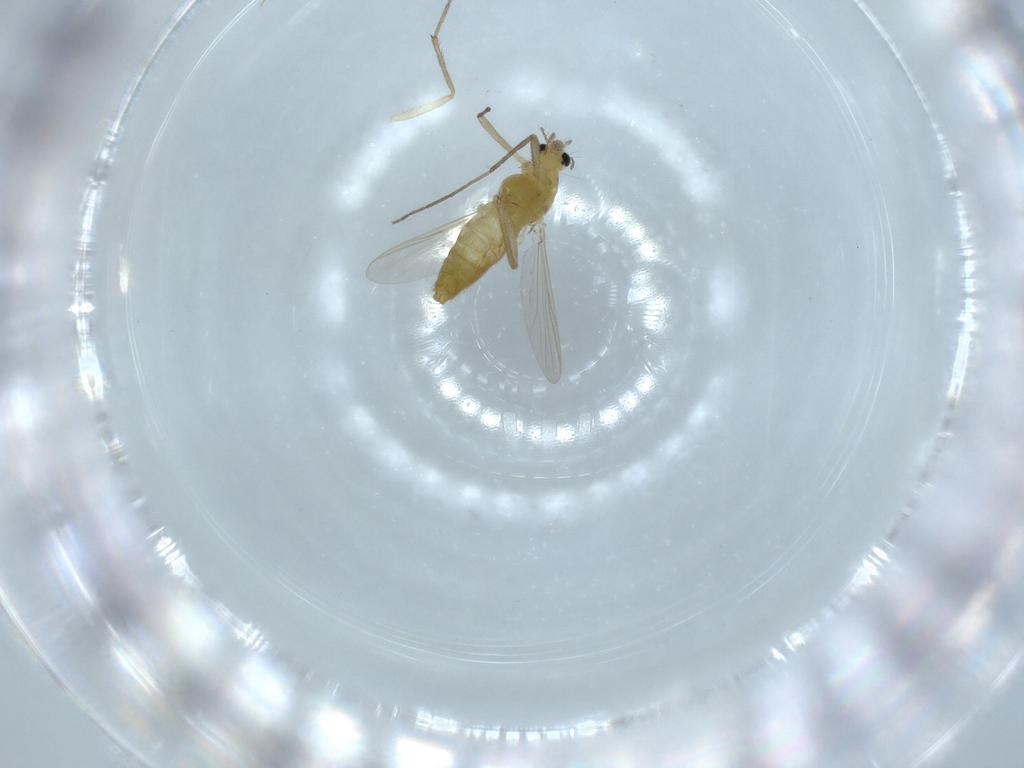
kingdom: Animalia
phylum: Arthropoda
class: Insecta
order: Diptera
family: Chironomidae
